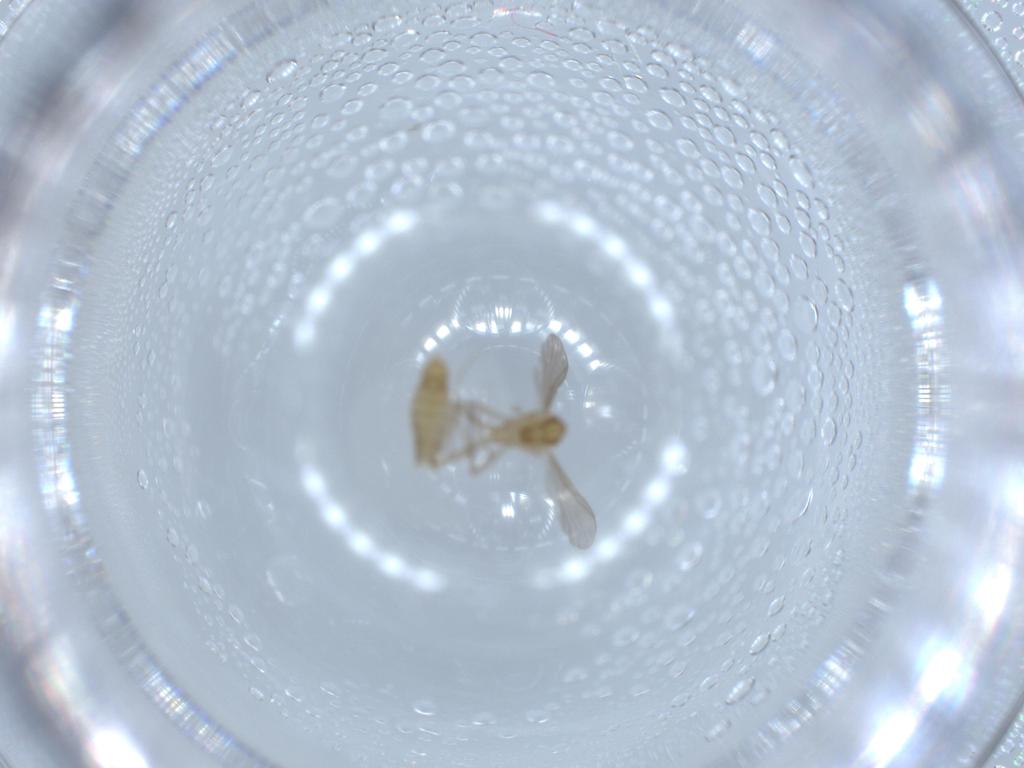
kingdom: Animalia
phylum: Arthropoda
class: Insecta
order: Diptera
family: Chironomidae
